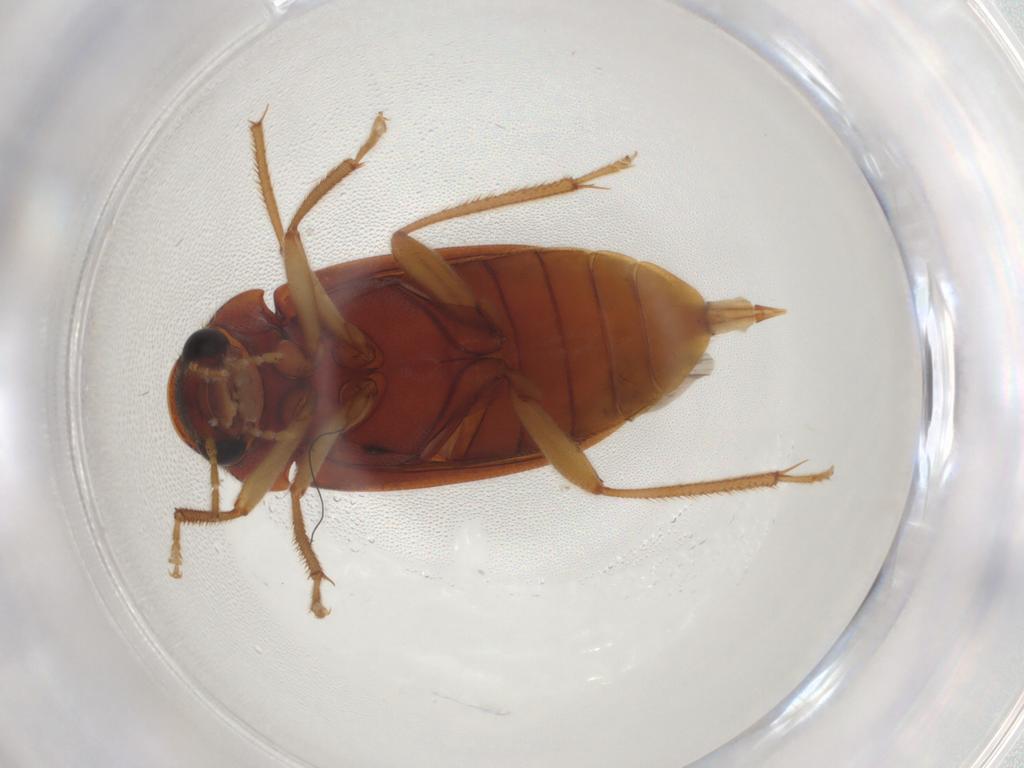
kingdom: Animalia
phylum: Arthropoda
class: Insecta
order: Coleoptera
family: Ptilodactylidae
